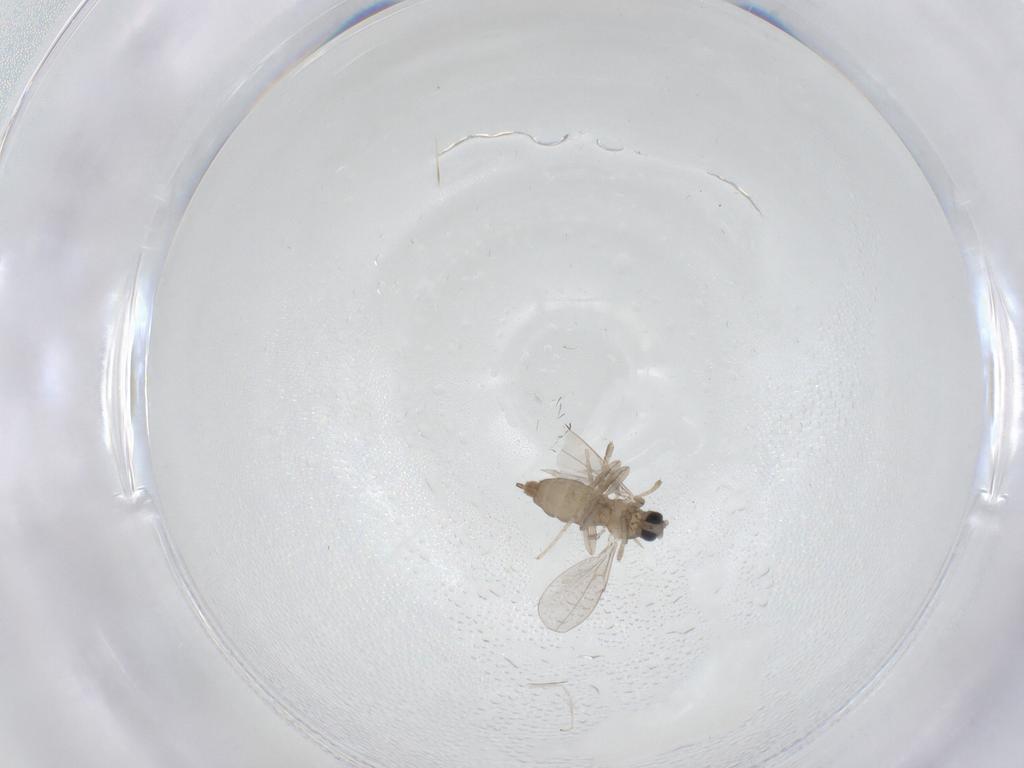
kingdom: Animalia
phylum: Arthropoda
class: Insecta
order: Diptera
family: Cecidomyiidae
